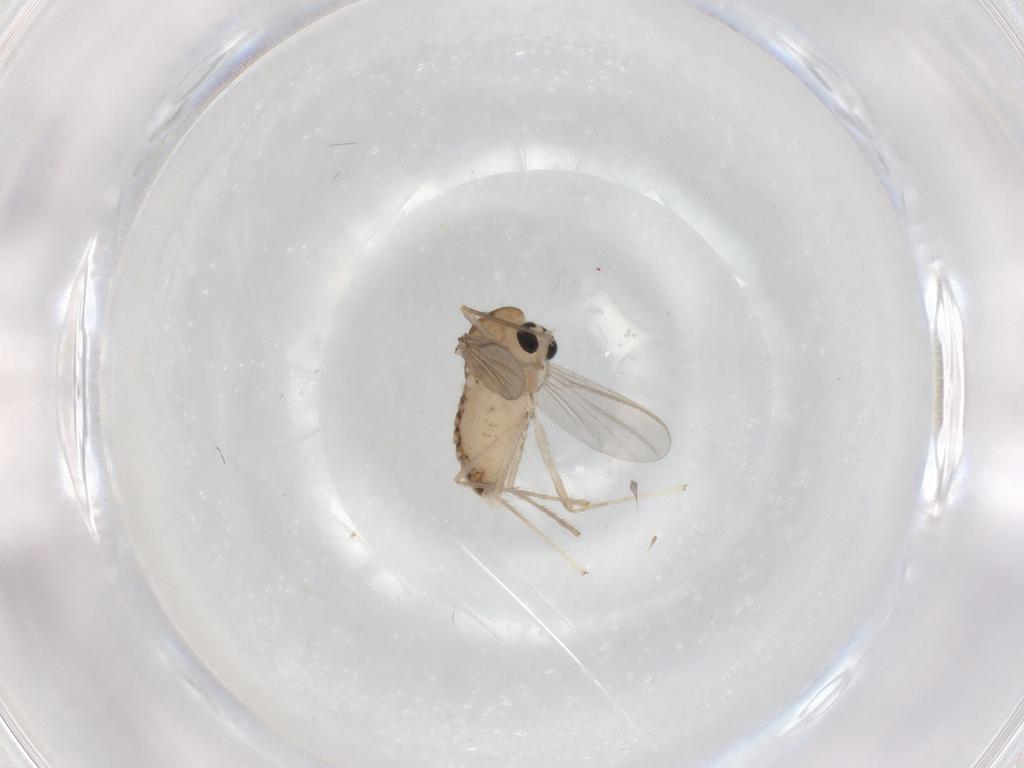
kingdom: Animalia
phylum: Arthropoda
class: Insecta
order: Diptera
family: Chironomidae
